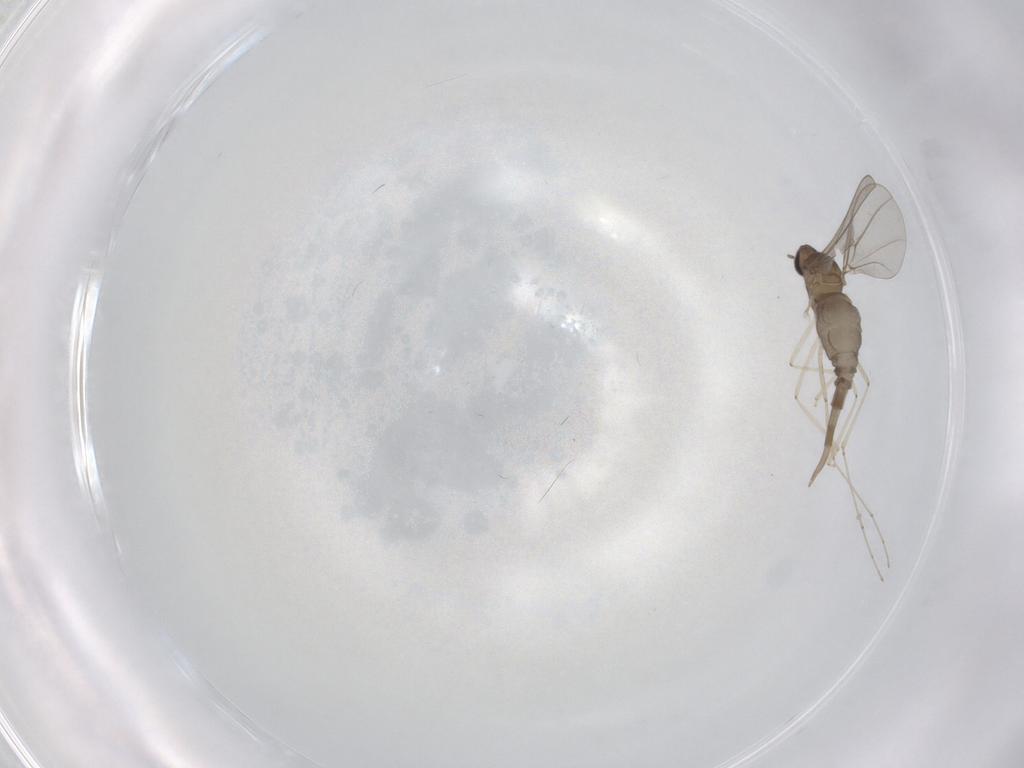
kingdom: Animalia
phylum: Arthropoda
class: Insecta
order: Diptera
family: Cecidomyiidae
